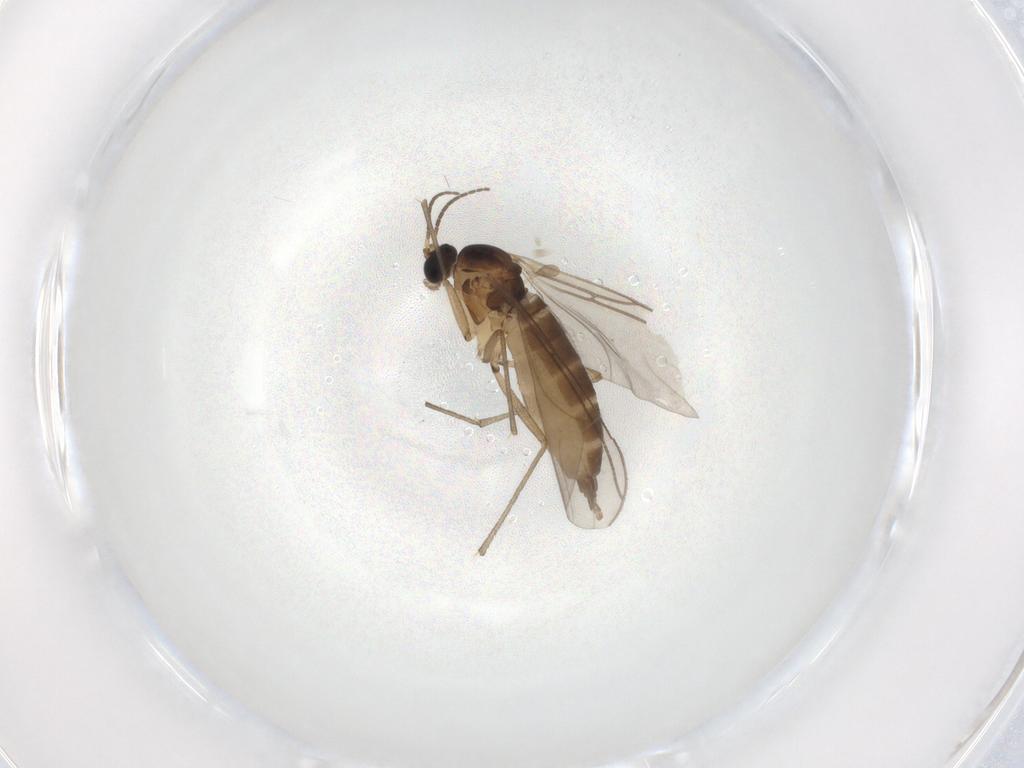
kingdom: Animalia
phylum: Arthropoda
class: Insecta
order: Diptera
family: Sciaridae
